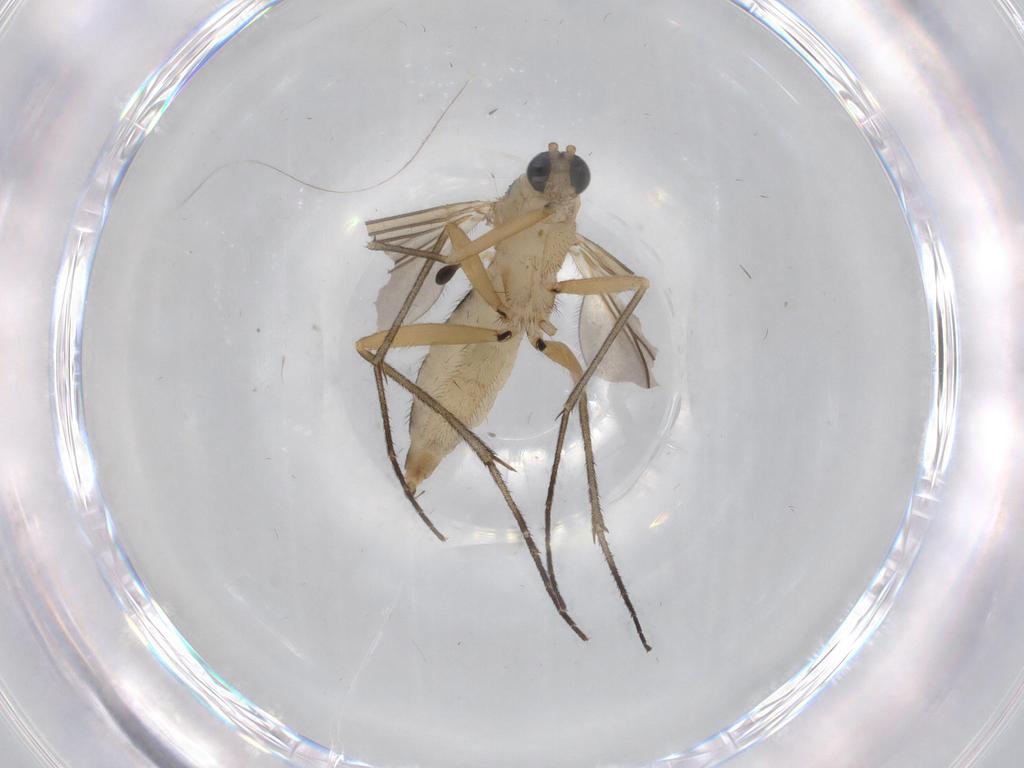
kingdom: Animalia
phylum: Arthropoda
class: Insecta
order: Diptera
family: Sciaridae
